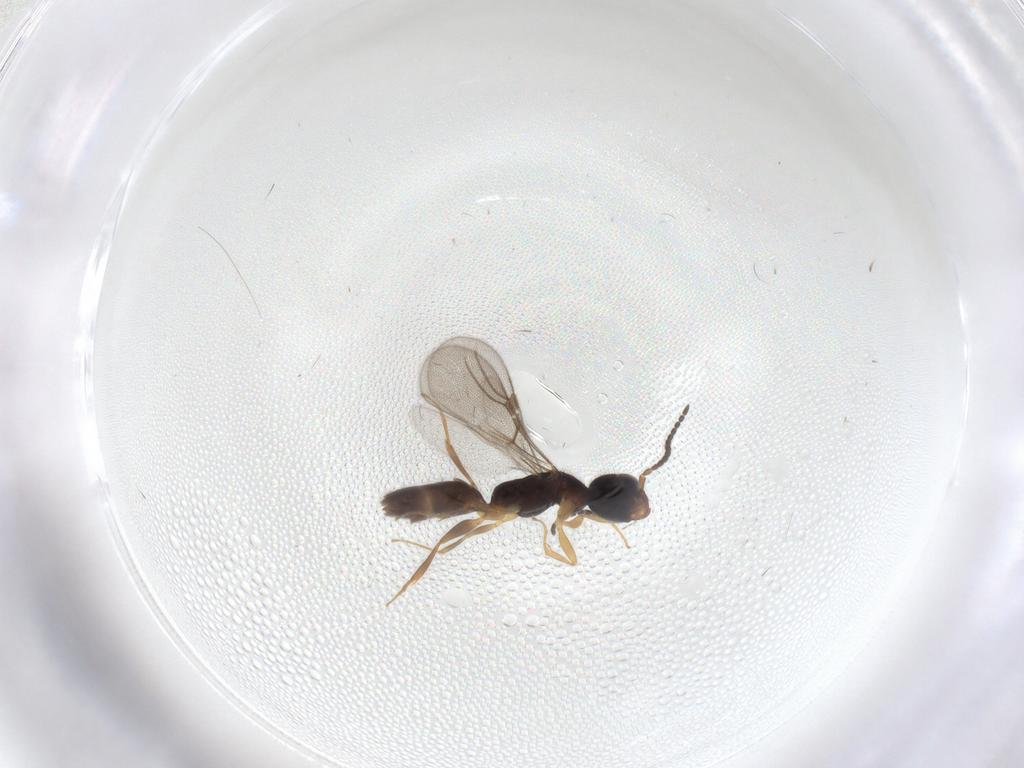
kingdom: Animalia
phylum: Arthropoda
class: Insecta
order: Hymenoptera
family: Bethylidae
